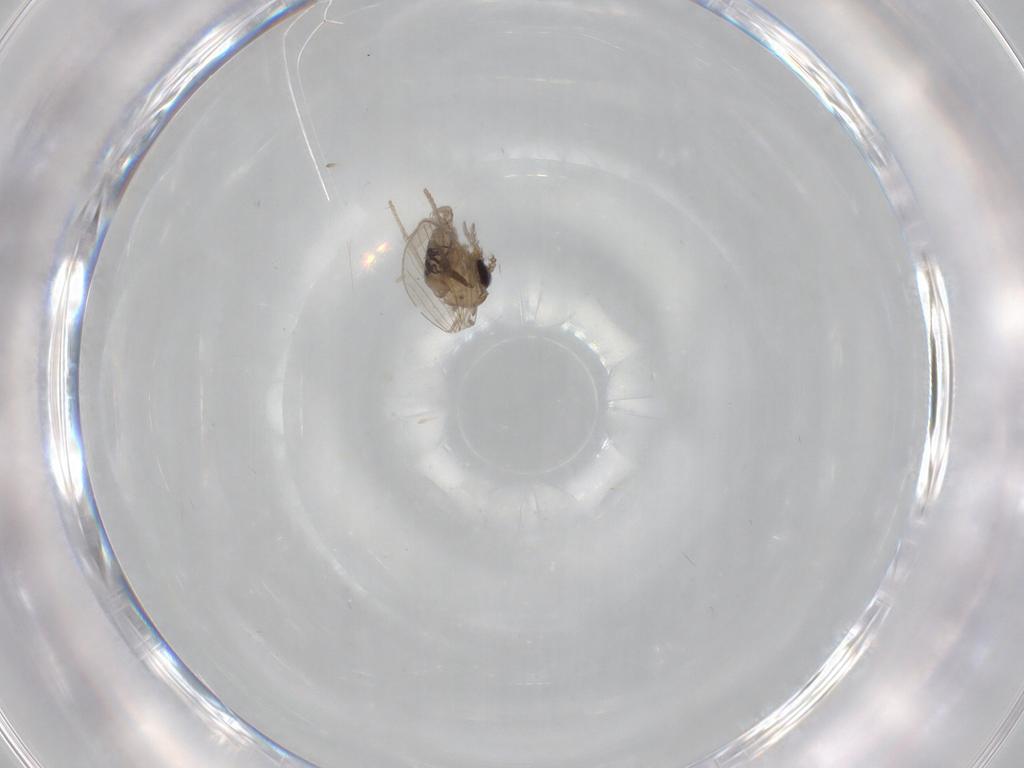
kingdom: Animalia
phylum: Arthropoda
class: Insecta
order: Diptera
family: Psychodidae
